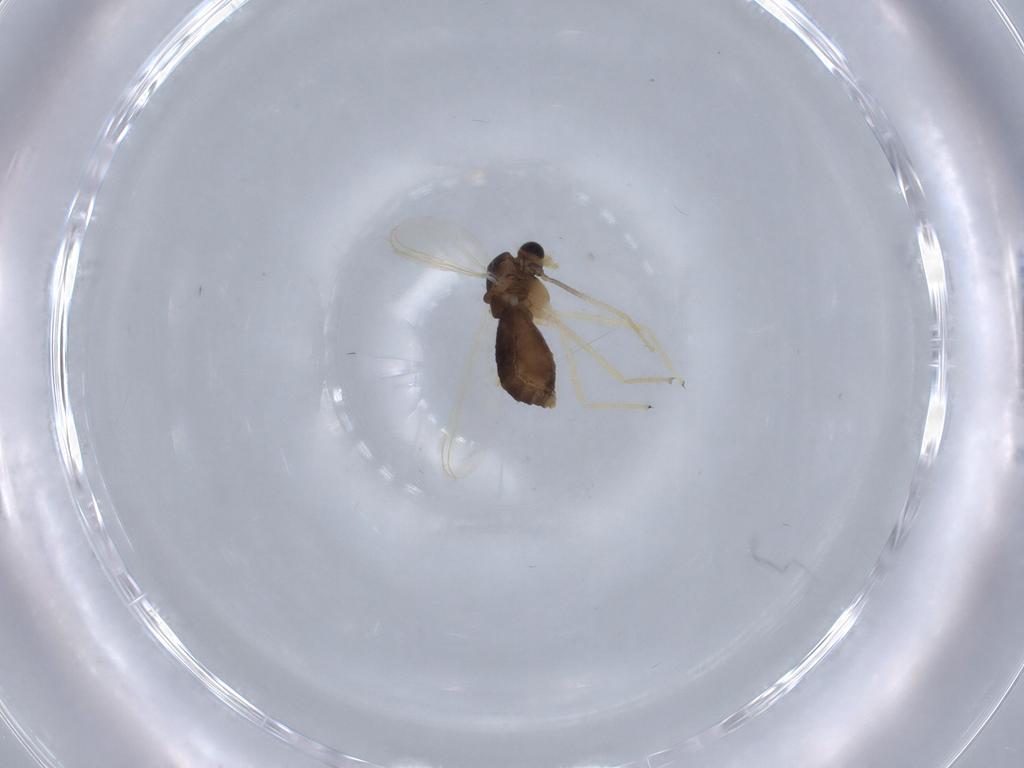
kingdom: Animalia
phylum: Arthropoda
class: Insecta
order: Diptera
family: Chironomidae
